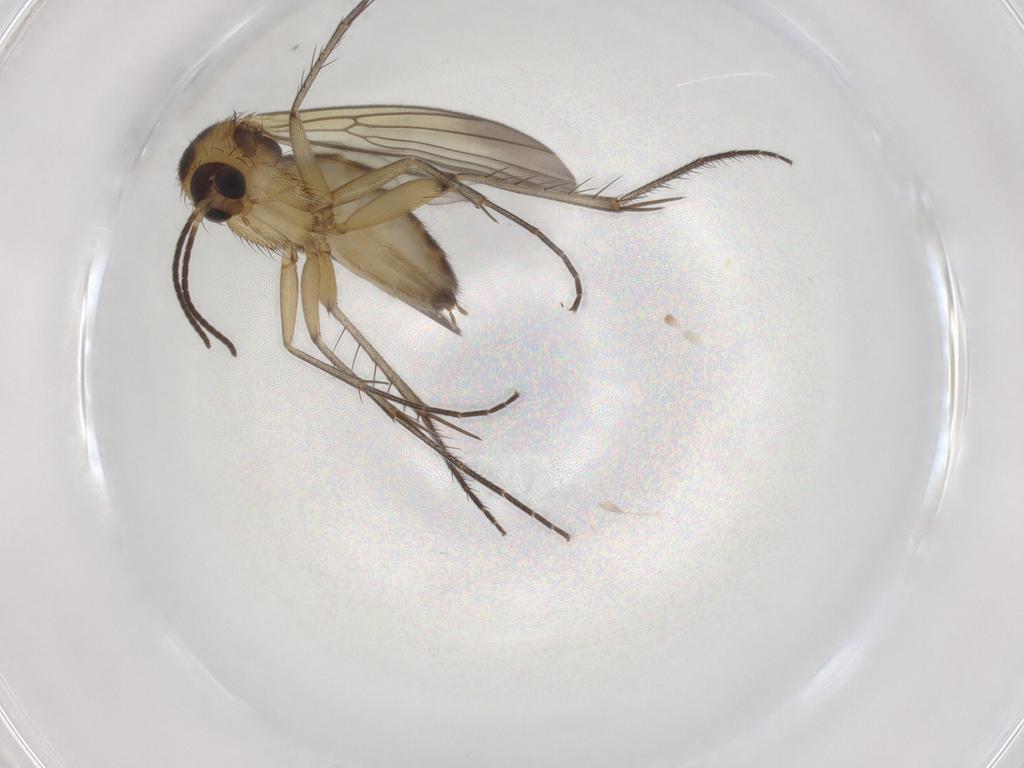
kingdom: Animalia
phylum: Arthropoda
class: Insecta
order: Diptera
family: Mycetophilidae
